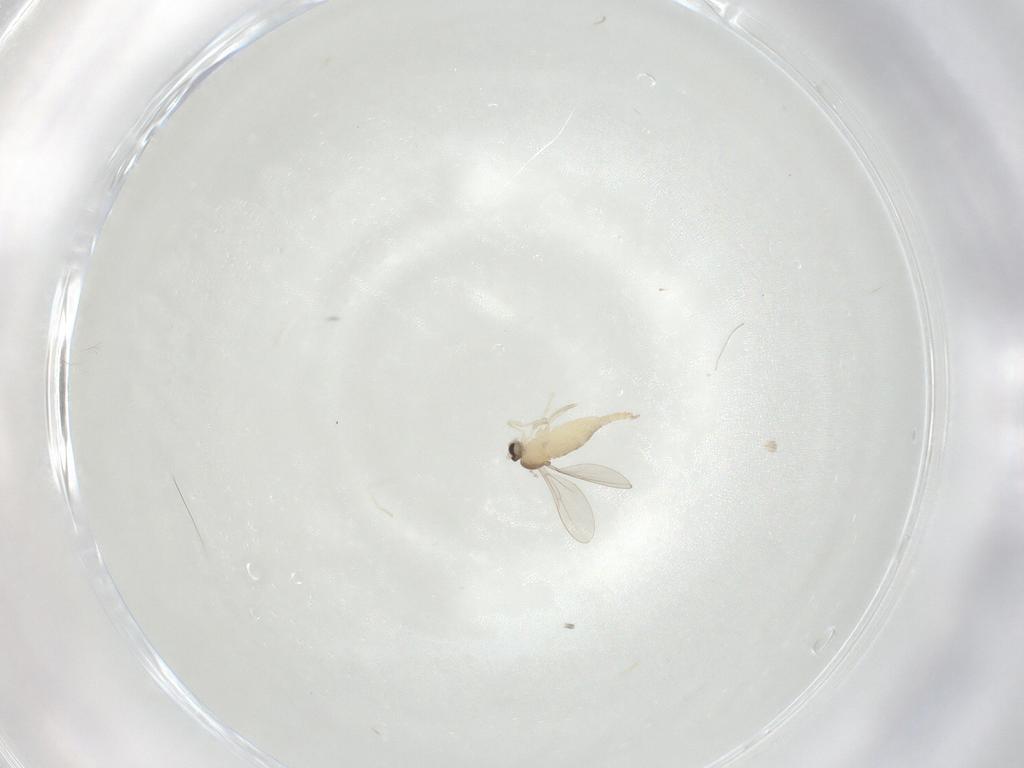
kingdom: Animalia
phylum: Arthropoda
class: Insecta
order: Diptera
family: Cecidomyiidae
